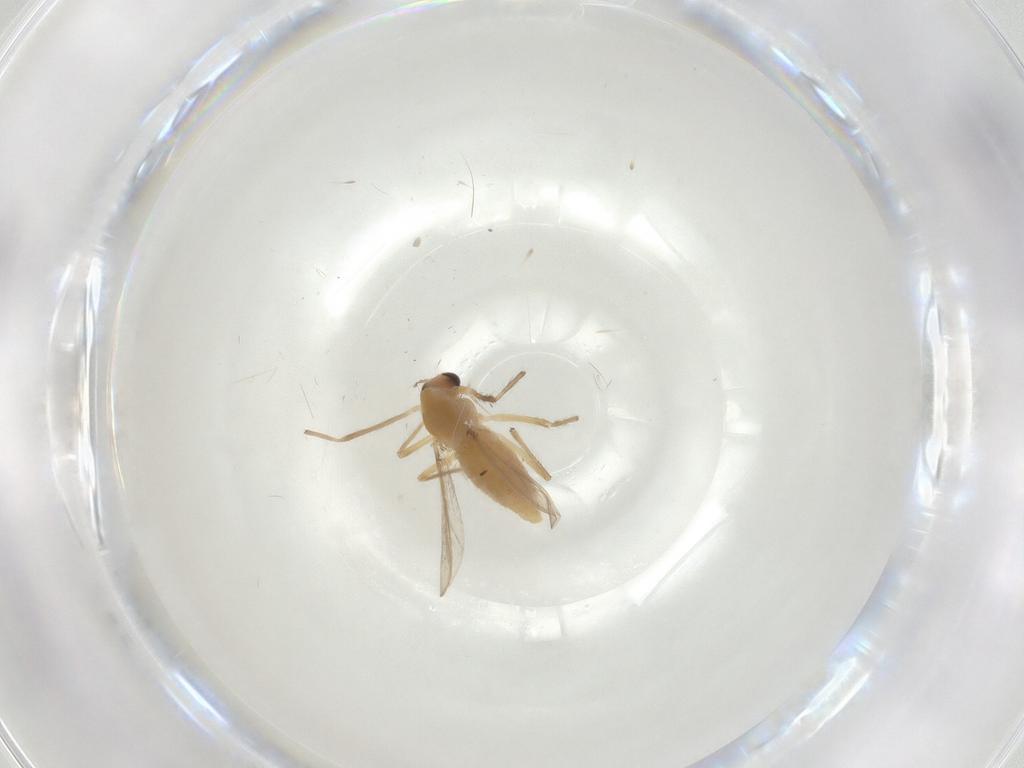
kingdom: Animalia
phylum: Arthropoda
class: Insecta
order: Diptera
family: Chironomidae
